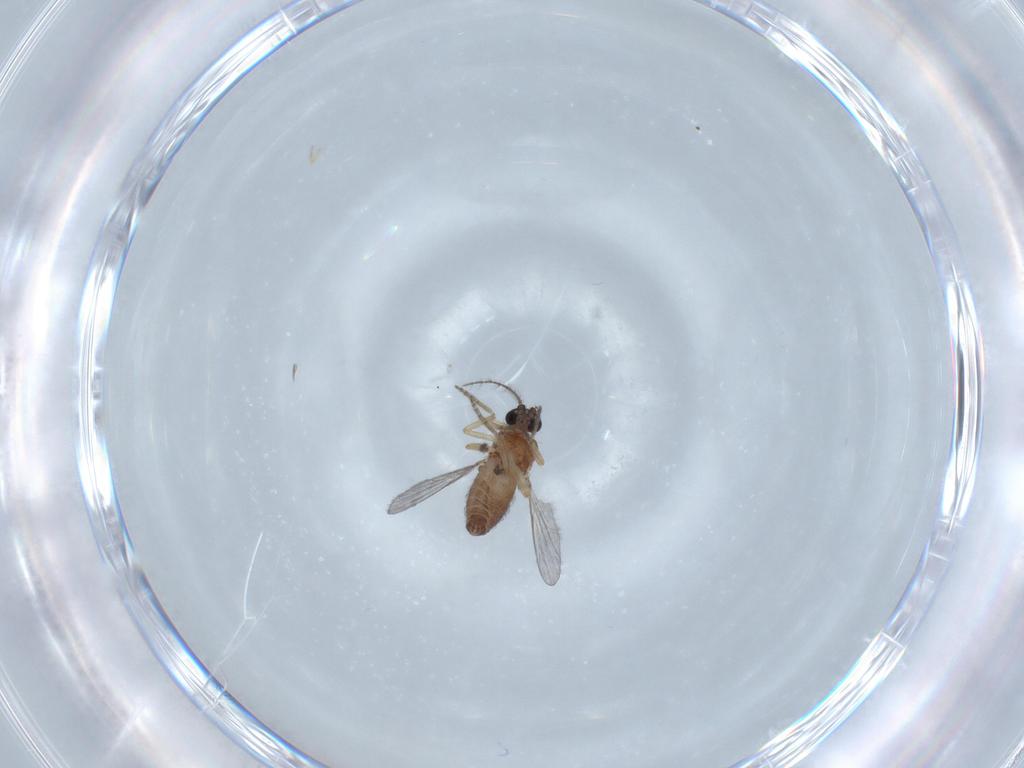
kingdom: Animalia
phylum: Arthropoda
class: Insecta
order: Diptera
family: Ceratopogonidae
